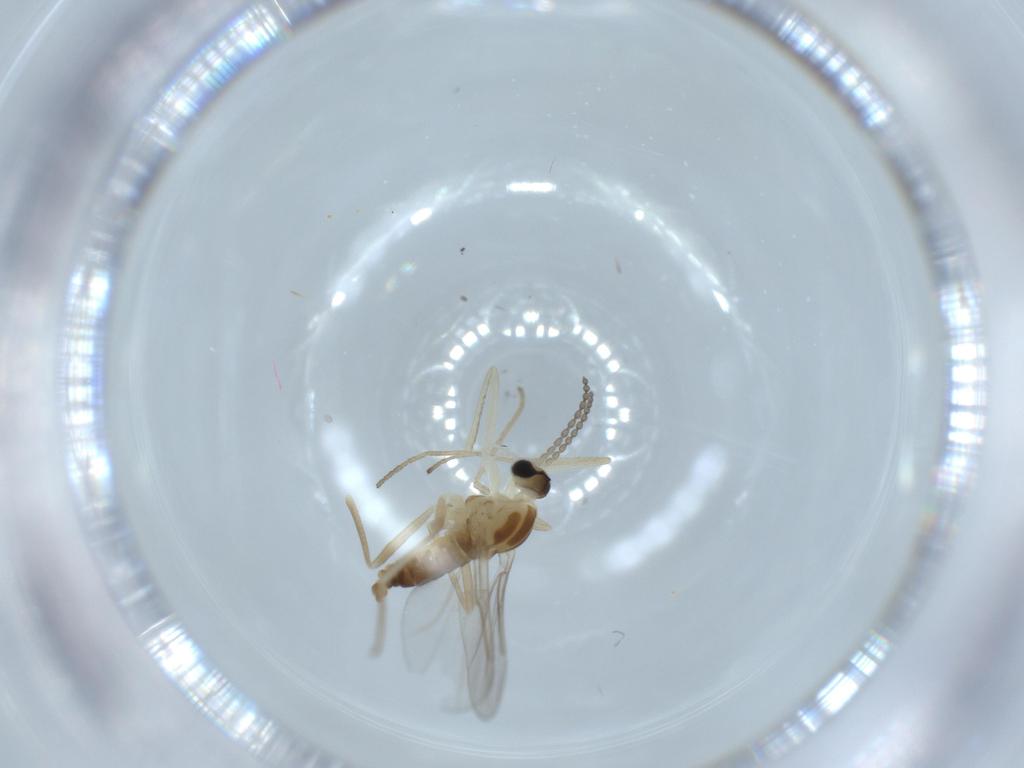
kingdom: Animalia
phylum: Arthropoda
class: Insecta
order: Diptera
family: Cecidomyiidae
